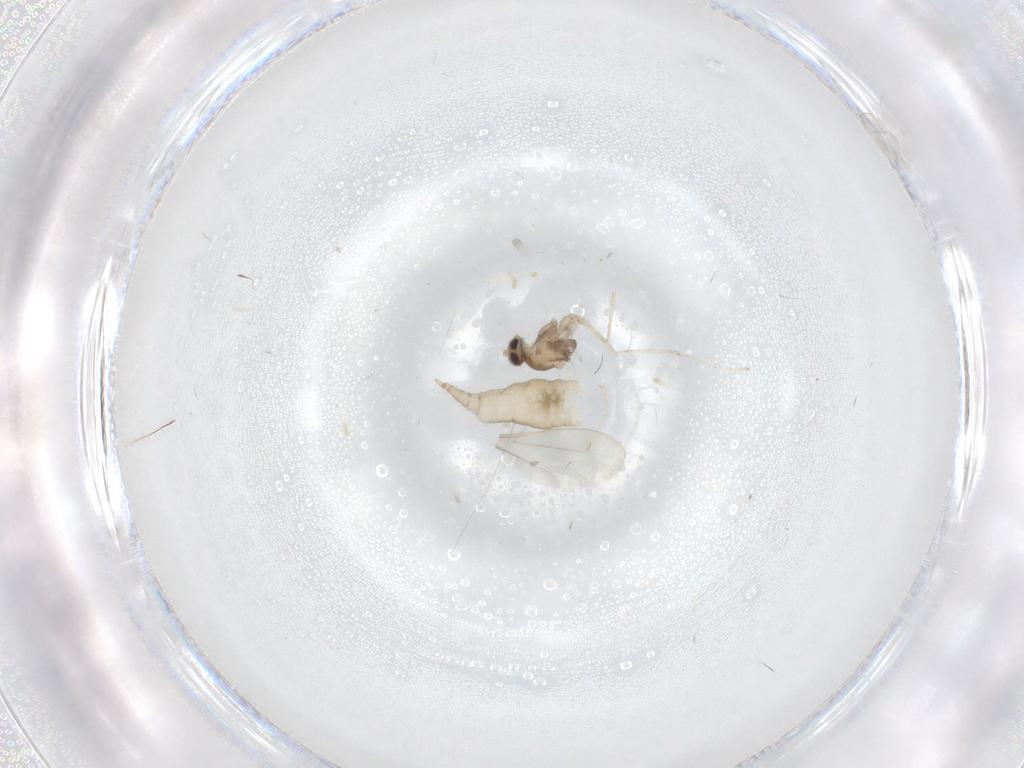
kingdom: Animalia
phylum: Arthropoda
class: Insecta
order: Diptera
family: Cecidomyiidae
